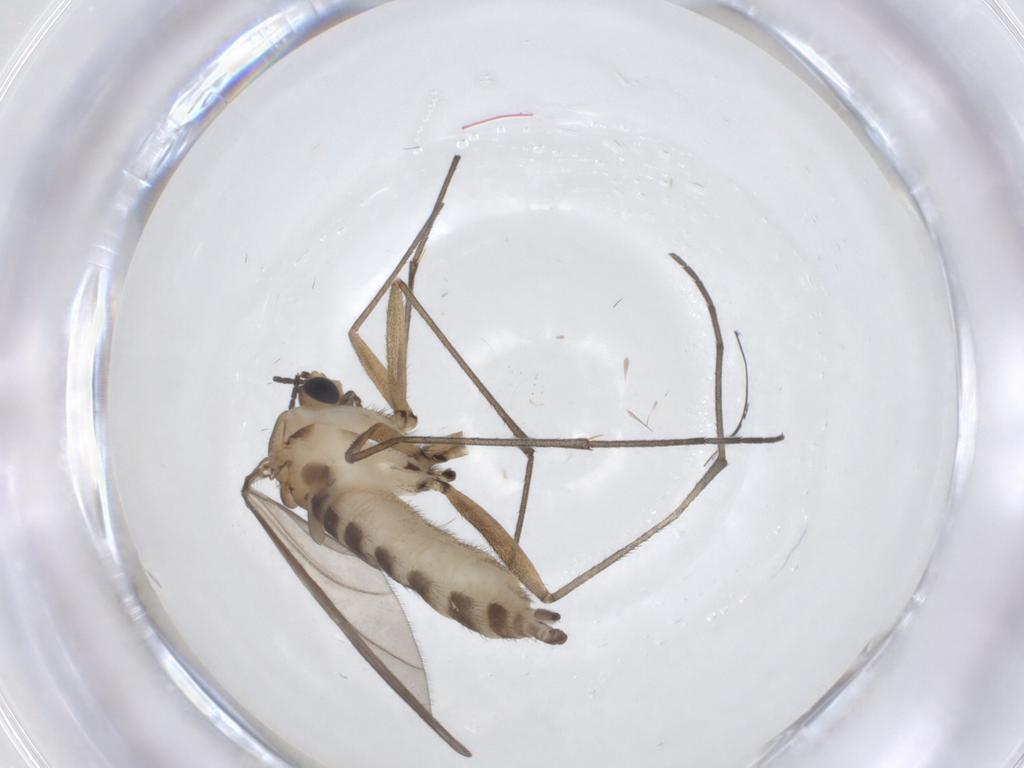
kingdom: Animalia
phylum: Arthropoda
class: Insecta
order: Diptera
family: Sciaridae
